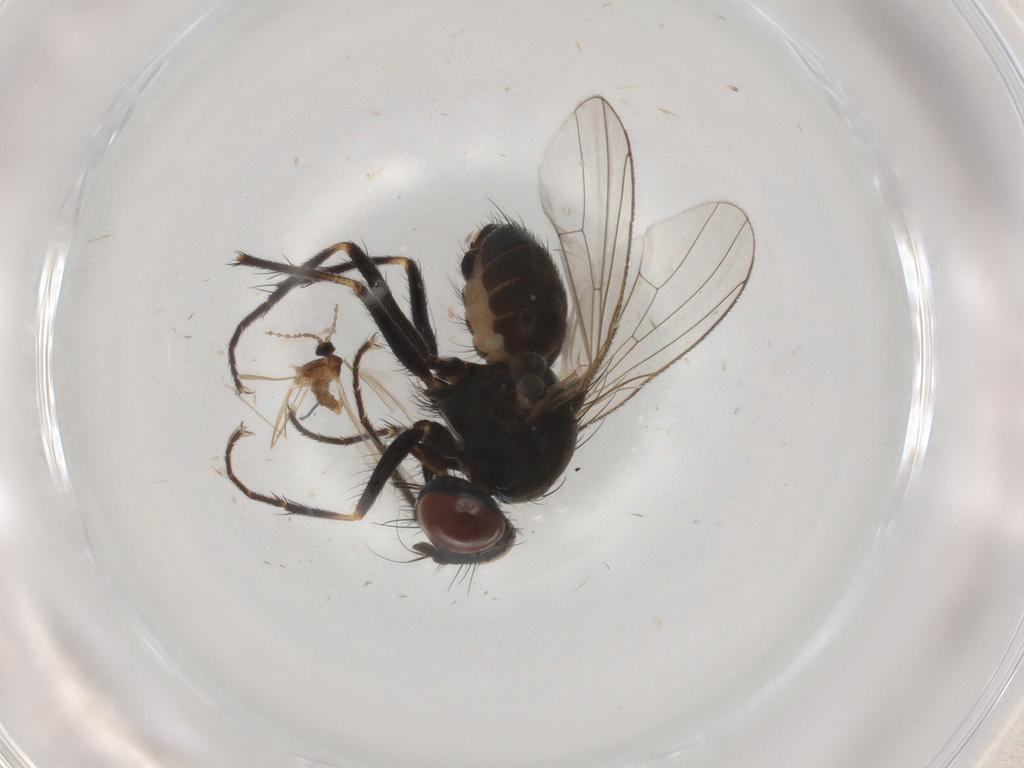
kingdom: Animalia
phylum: Arthropoda
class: Insecta
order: Diptera
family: Muscidae
